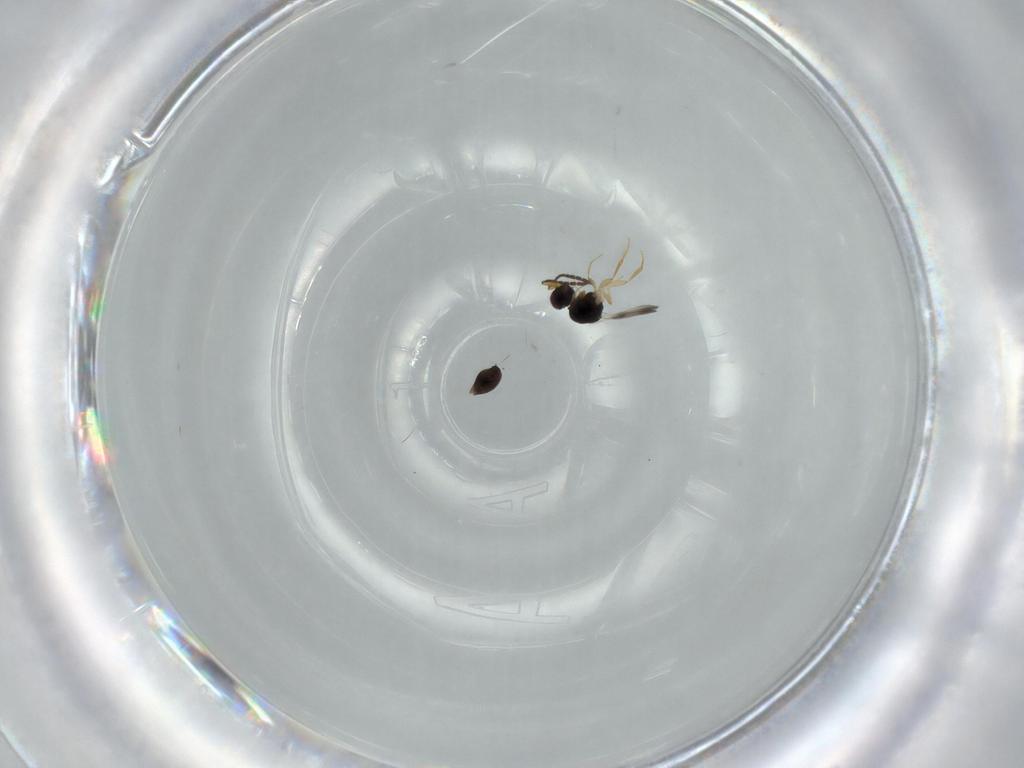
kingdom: Animalia
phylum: Arthropoda
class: Insecta
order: Hymenoptera
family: Ceraphronidae
